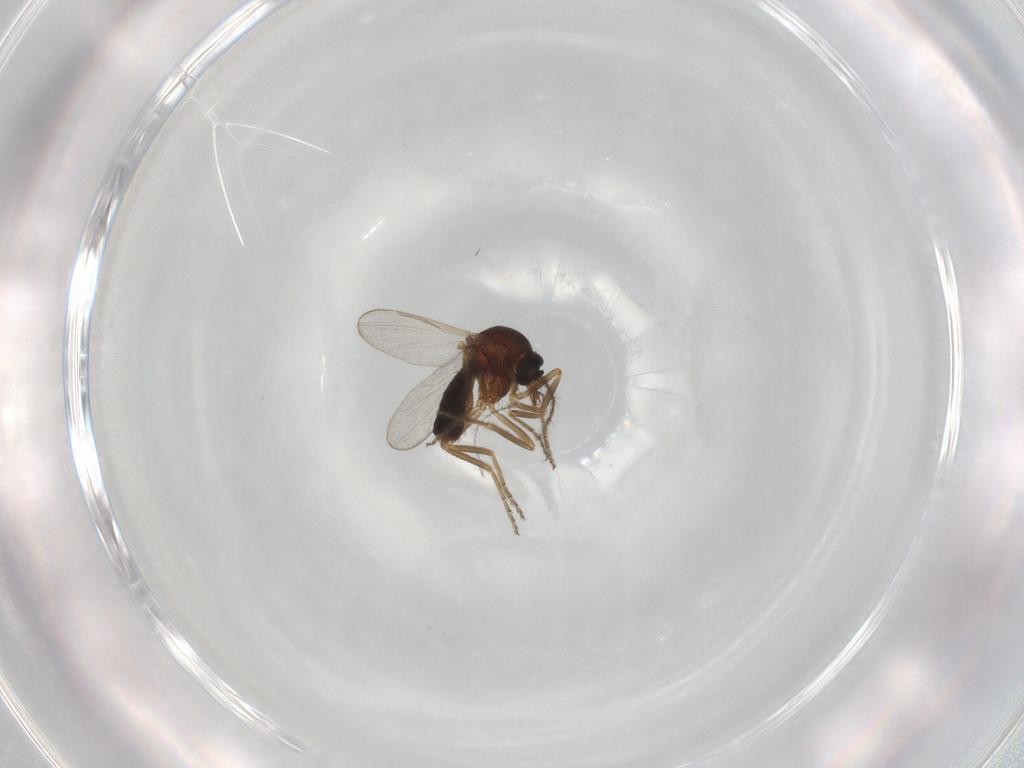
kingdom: Animalia
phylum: Arthropoda
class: Insecta
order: Diptera
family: Ceratopogonidae
